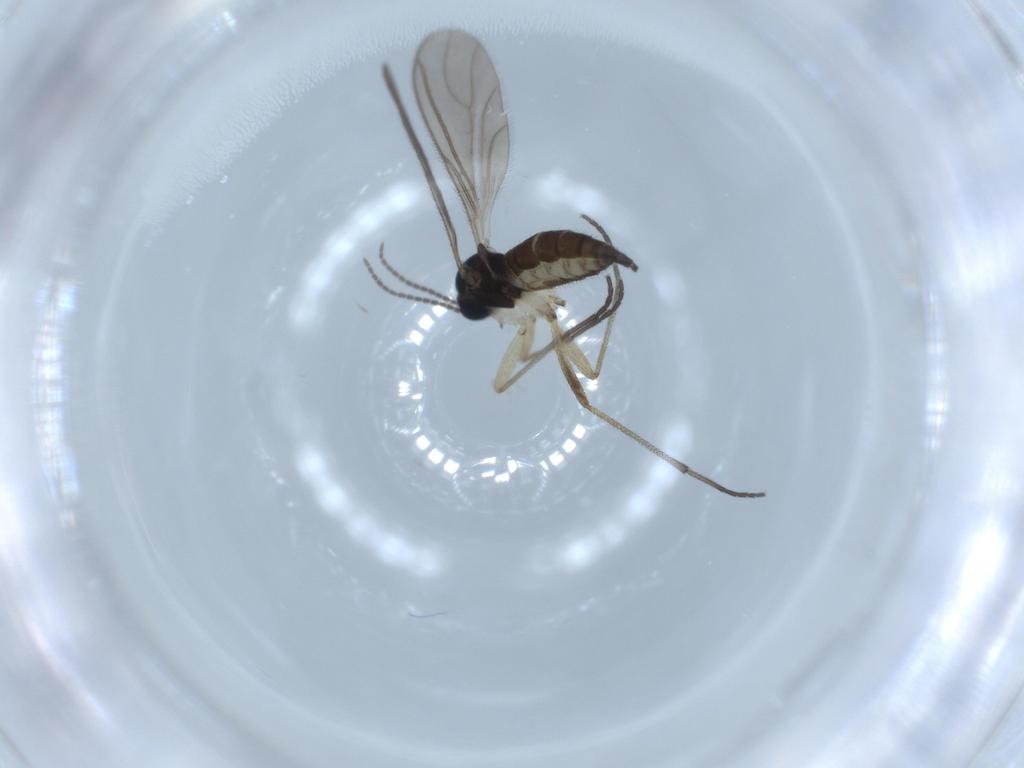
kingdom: Animalia
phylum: Arthropoda
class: Insecta
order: Diptera
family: Sciaridae
